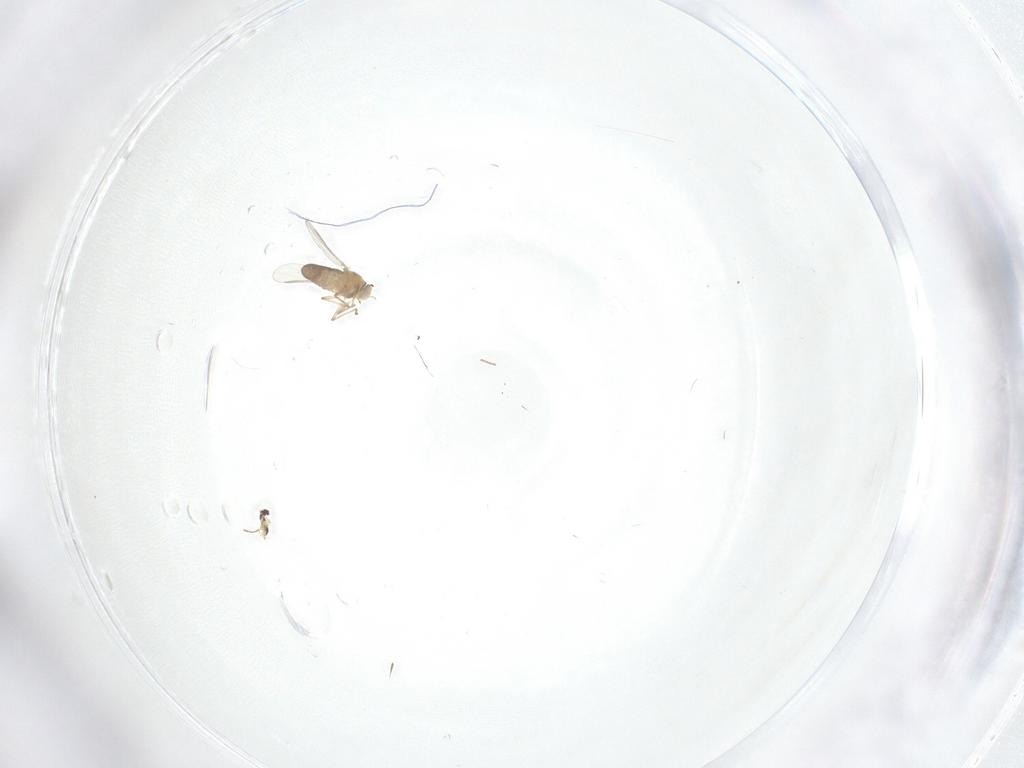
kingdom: Animalia
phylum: Arthropoda
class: Insecta
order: Diptera
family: Chironomidae
